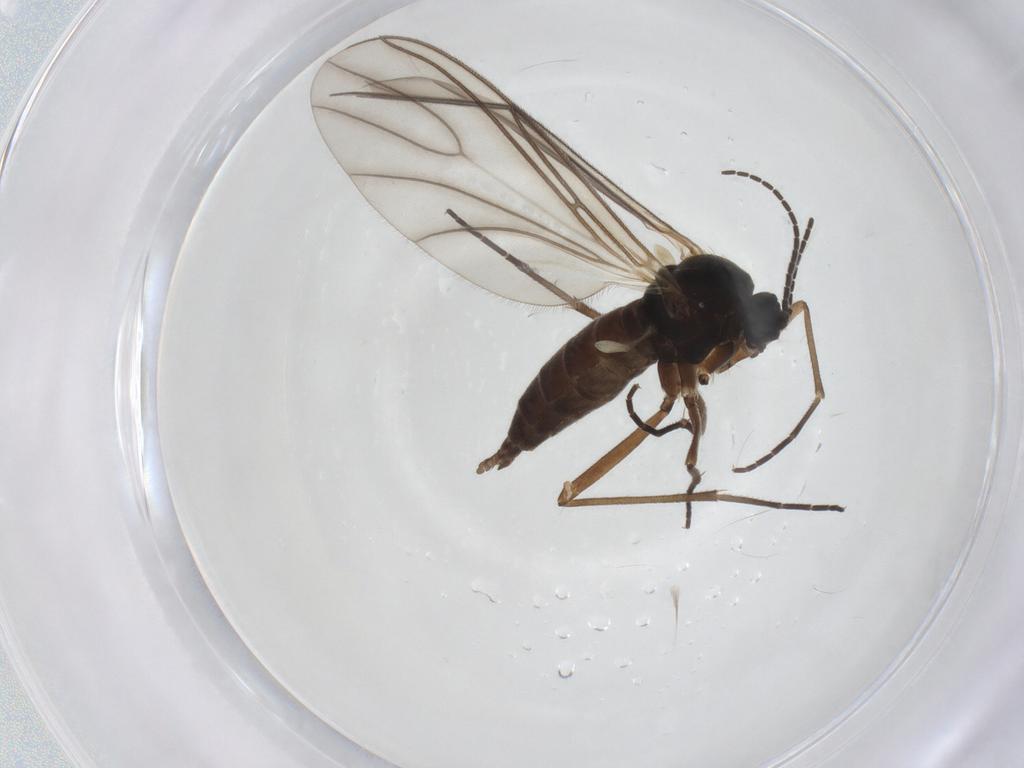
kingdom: Animalia
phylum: Arthropoda
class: Insecta
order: Diptera
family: Sciaridae
